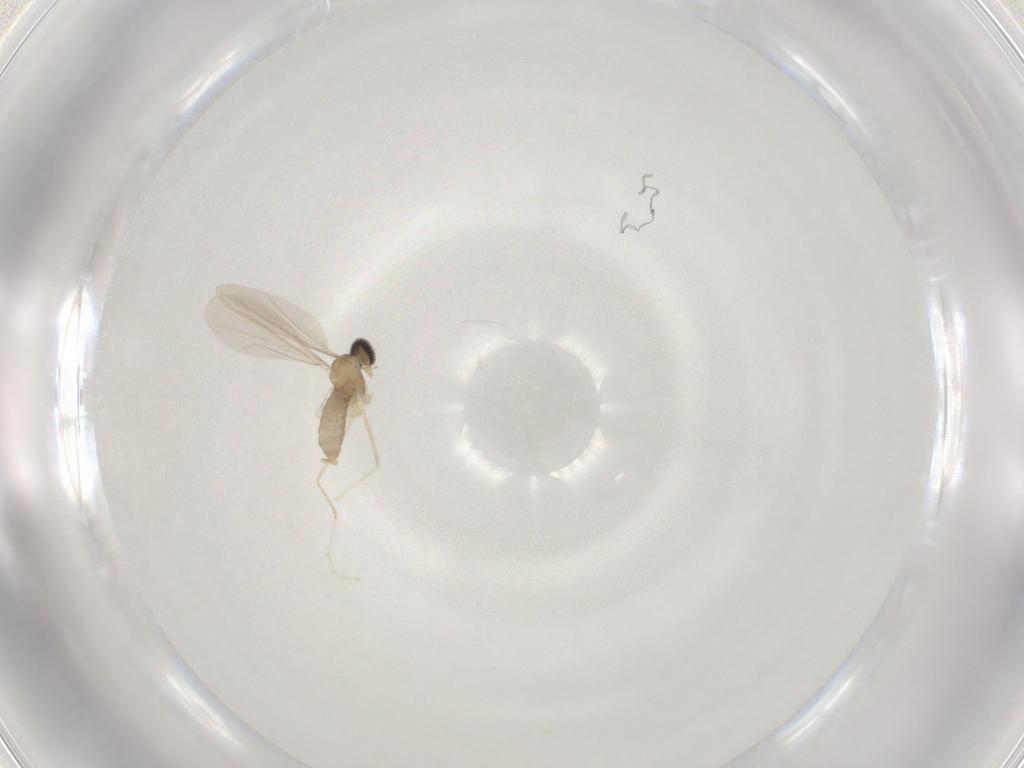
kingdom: Animalia
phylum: Arthropoda
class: Insecta
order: Diptera
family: Cecidomyiidae
